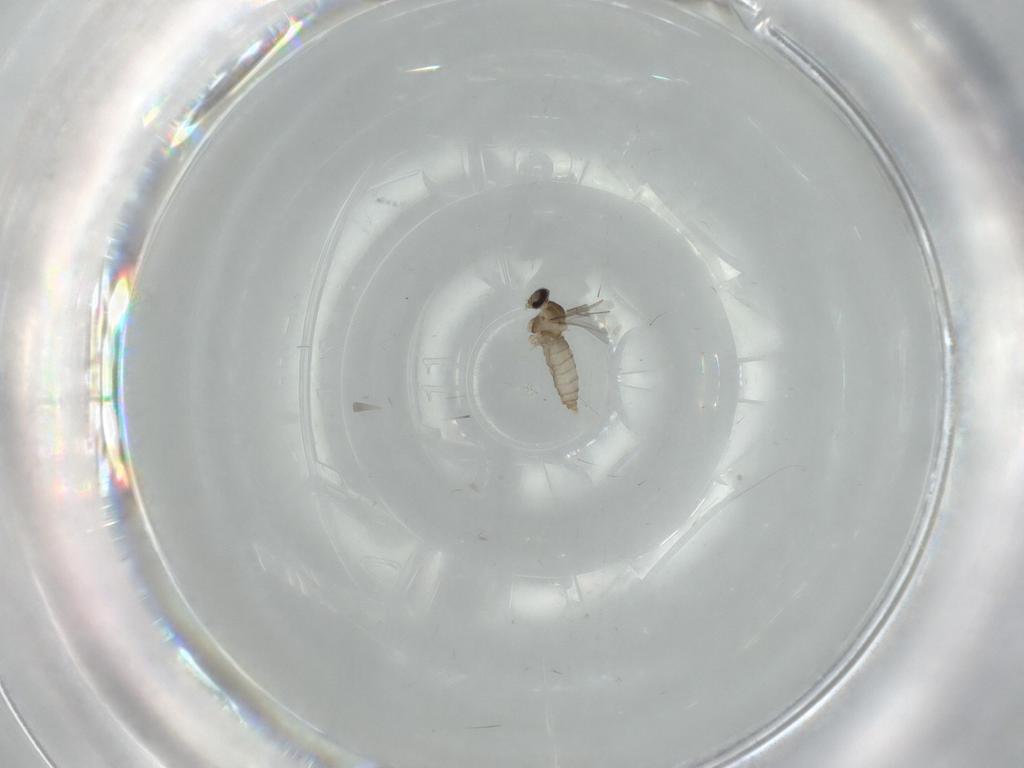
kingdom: Animalia
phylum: Arthropoda
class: Insecta
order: Diptera
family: Cecidomyiidae
